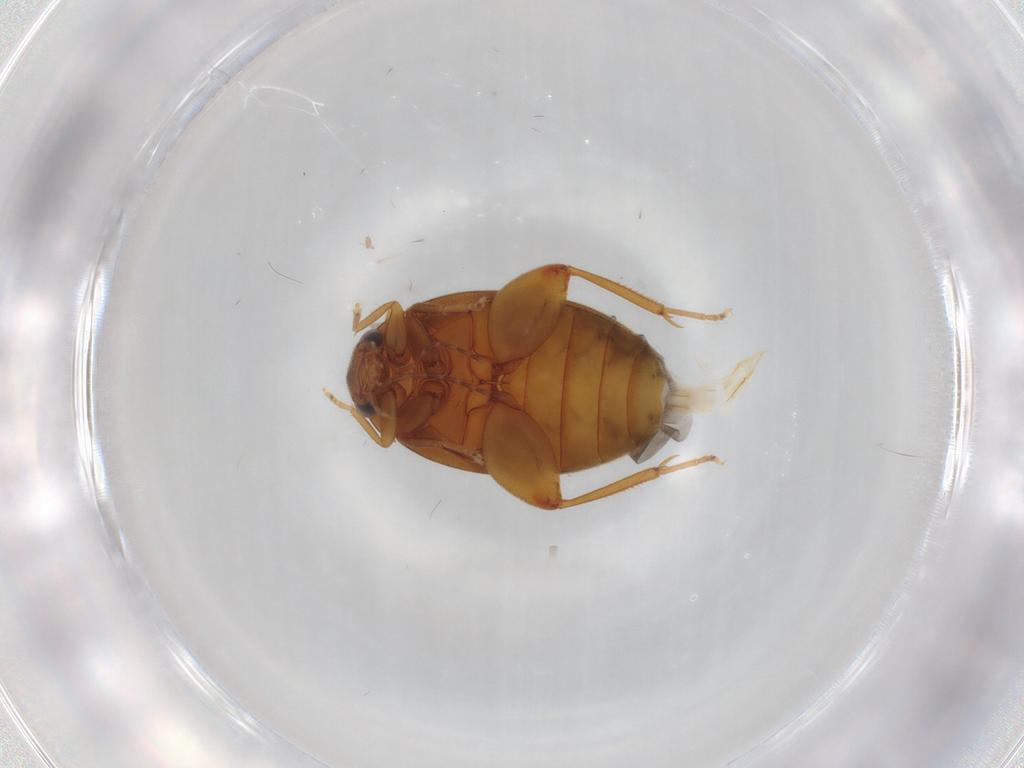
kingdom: Animalia
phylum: Arthropoda
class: Insecta
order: Coleoptera
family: Scirtidae
